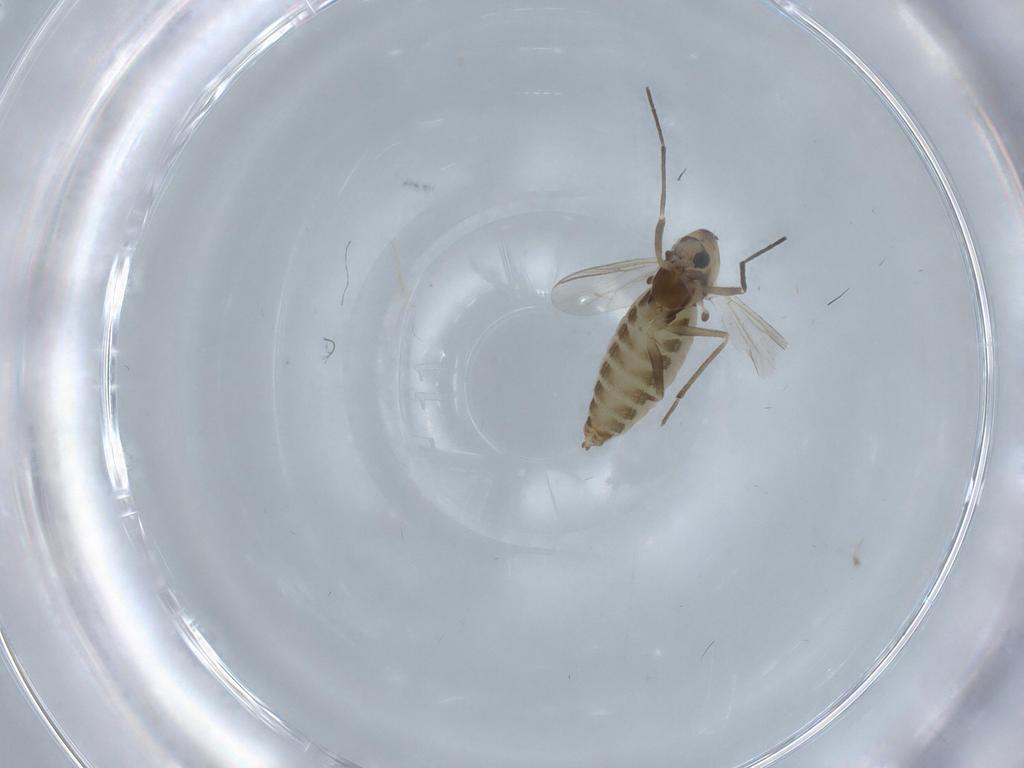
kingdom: Animalia
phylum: Arthropoda
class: Insecta
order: Diptera
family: Chironomidae
